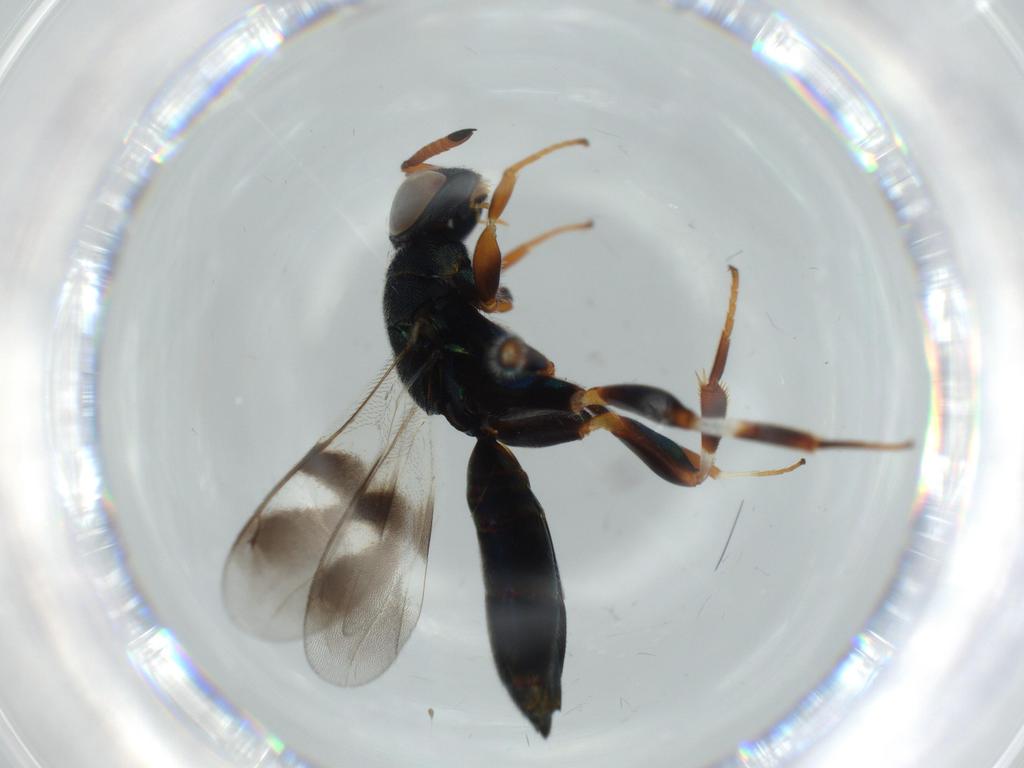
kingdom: Animalia
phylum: Arthropoda
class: Insecta
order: Hymenoptera
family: Cleonyminae
